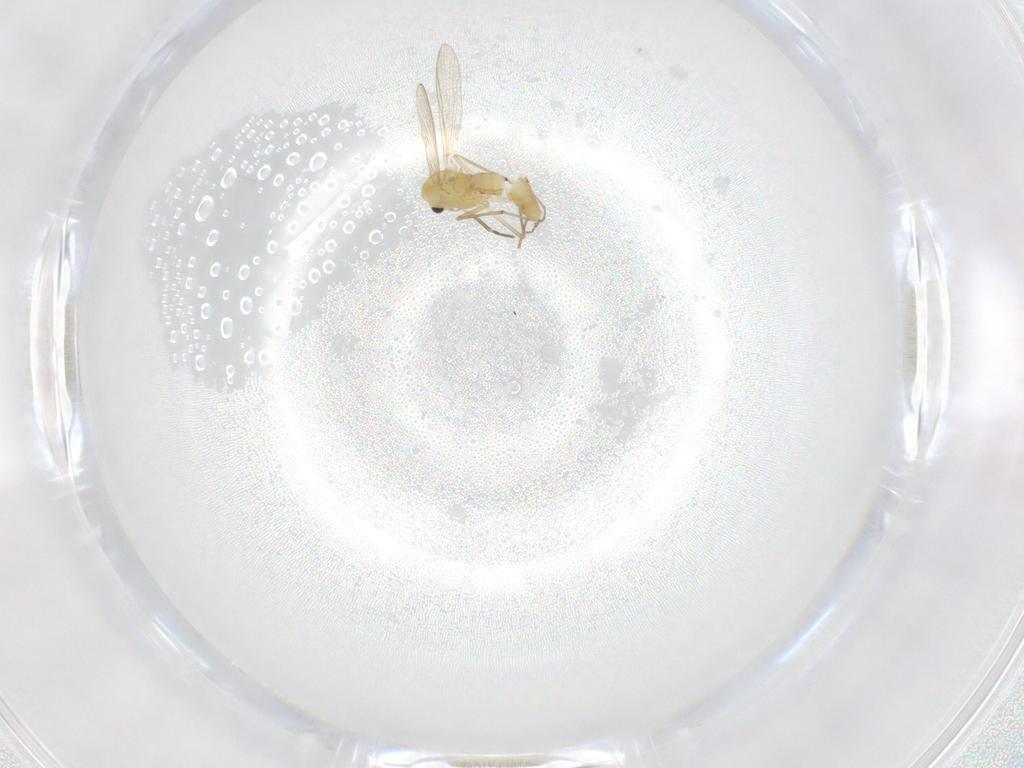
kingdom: Animalia
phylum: Arthropoda
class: Insecta
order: Diptera
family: Chironomidae
